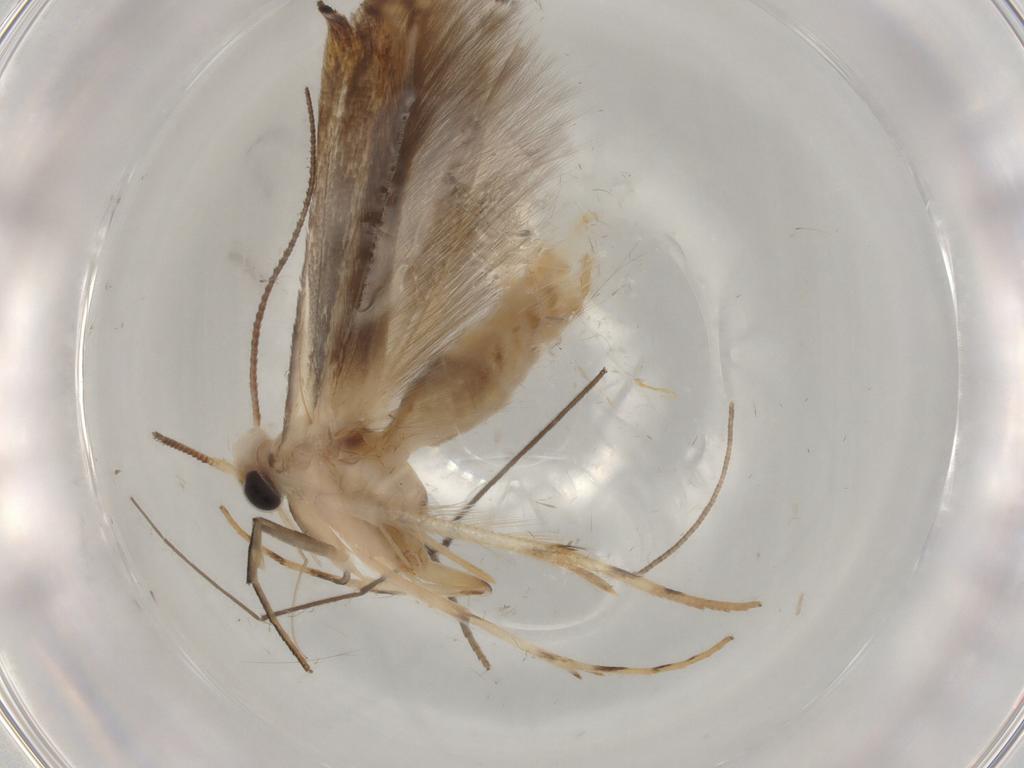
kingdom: Animalia
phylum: Arthropoda
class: Insecta
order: Lepidoptera
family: Gelechiidae
